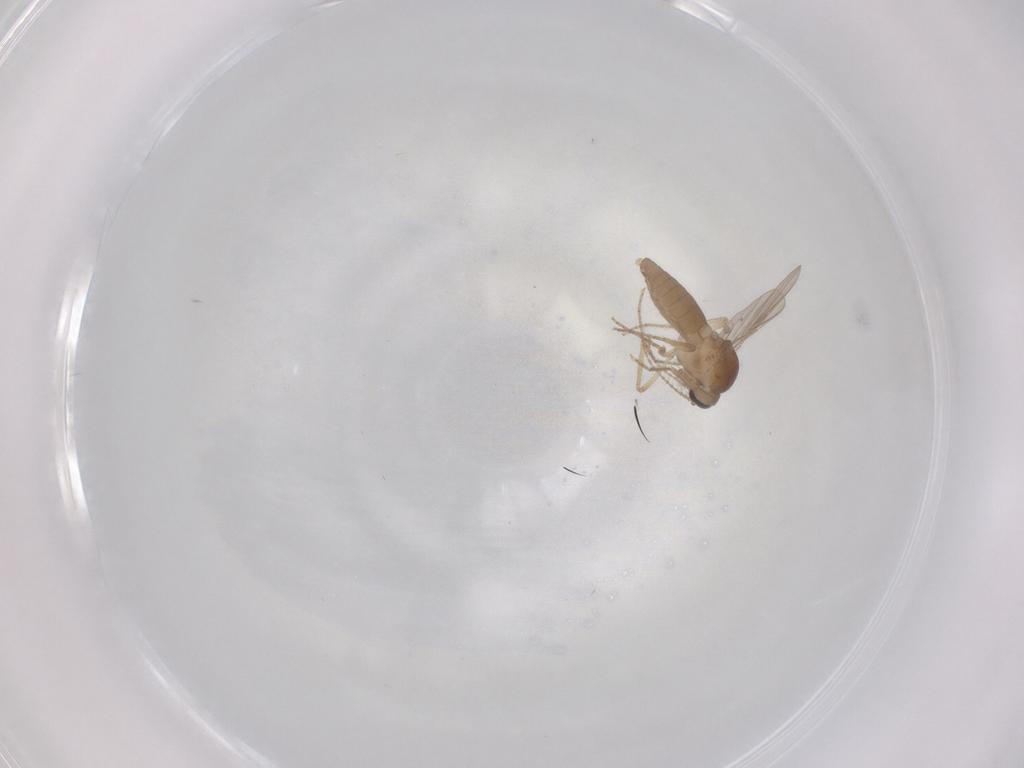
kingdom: Animalia
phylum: Arthropoda
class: Insecta
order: Diptera
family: Ceratopogonidae
